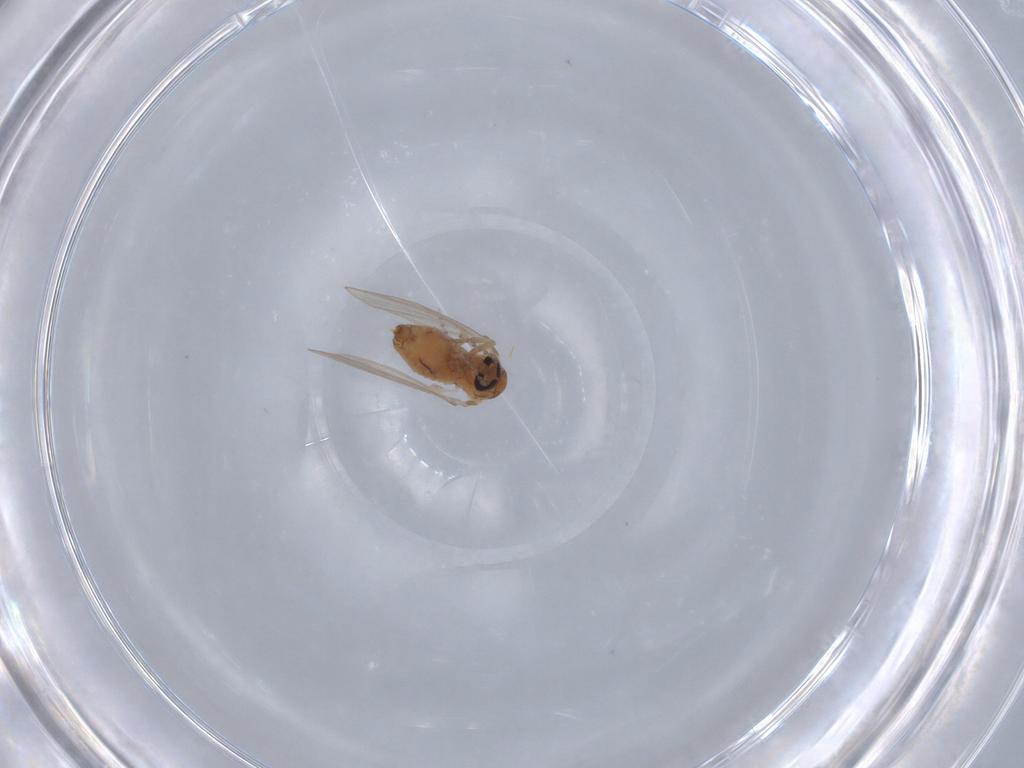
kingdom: Animalia
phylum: Arthropoda
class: Insecta
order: Diptera
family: Psychodidae
